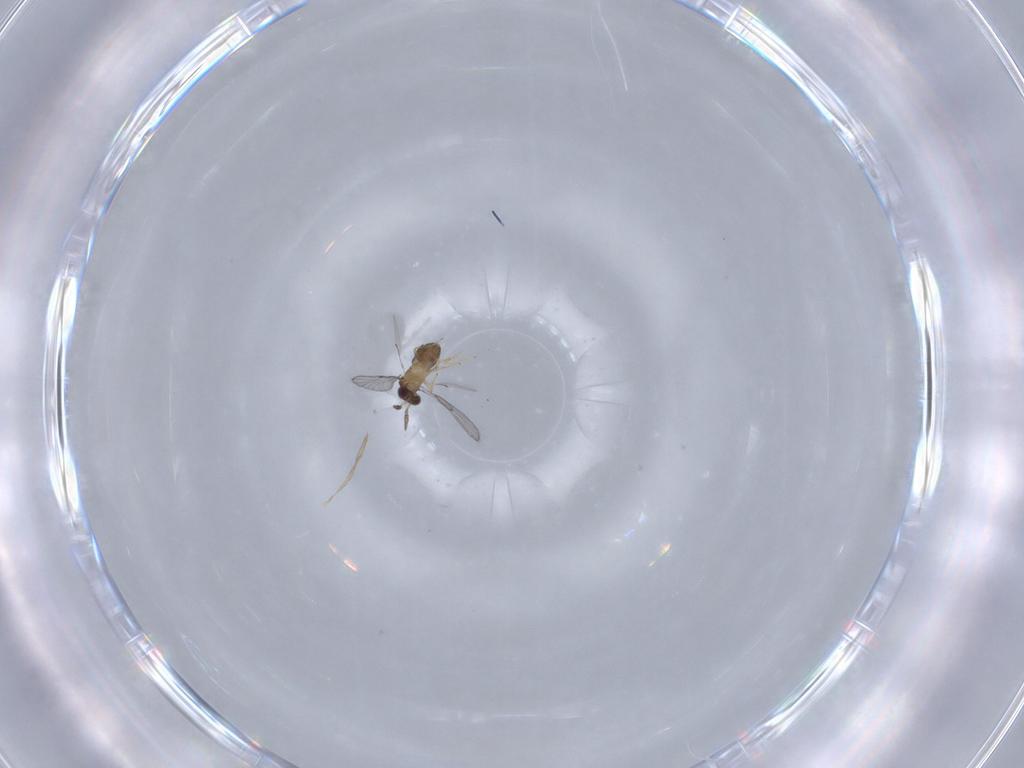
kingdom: Animalia
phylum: Arthropoda
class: Insecta
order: Hymenoptera
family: Trichogrammatidae
